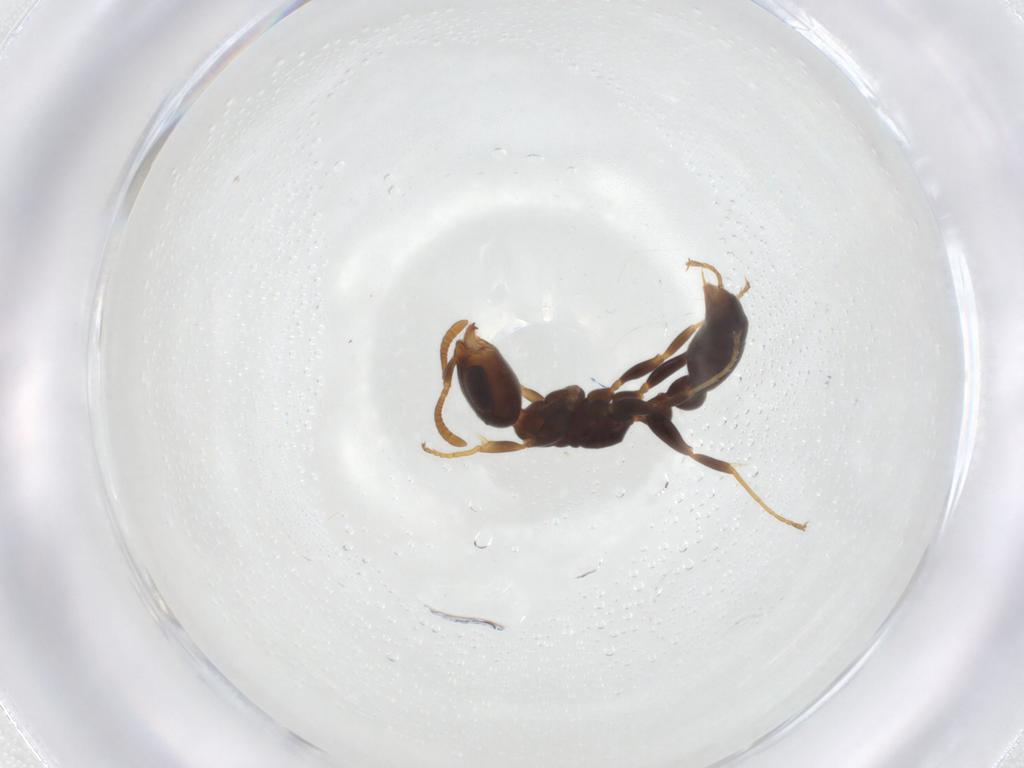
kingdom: Animalia
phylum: Arthropoda
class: Insecta
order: Hymenoptera
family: Formicidae
